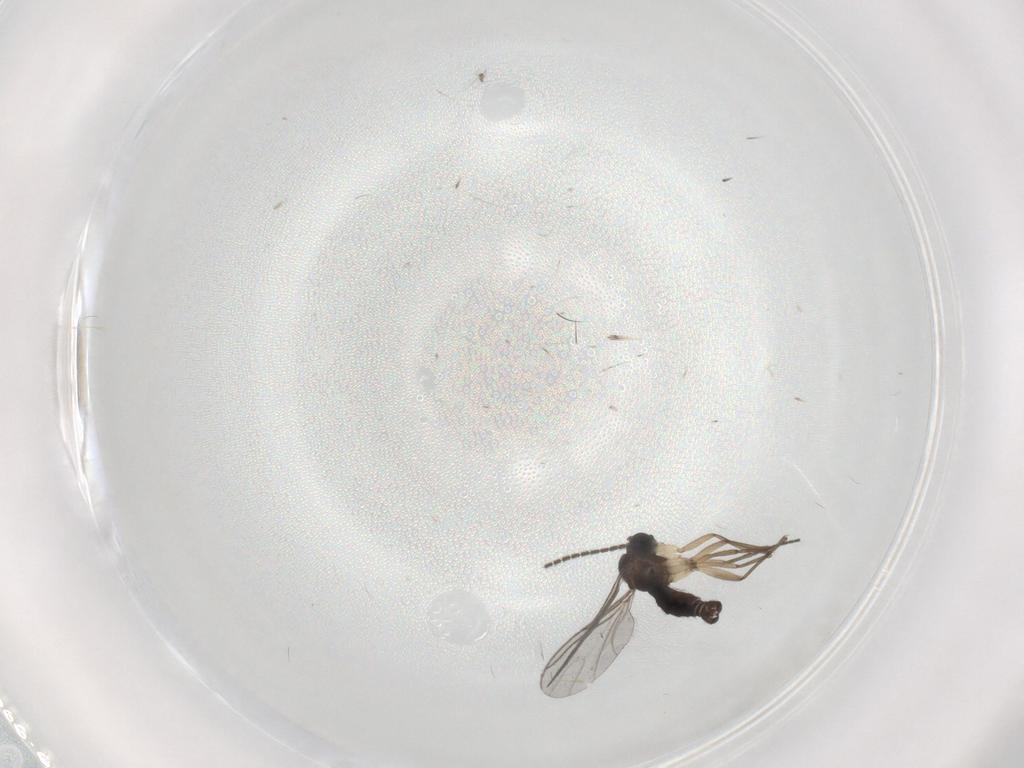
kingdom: Animalia
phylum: Arthropoda
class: Insecta
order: Diptera
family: Sciaridae
